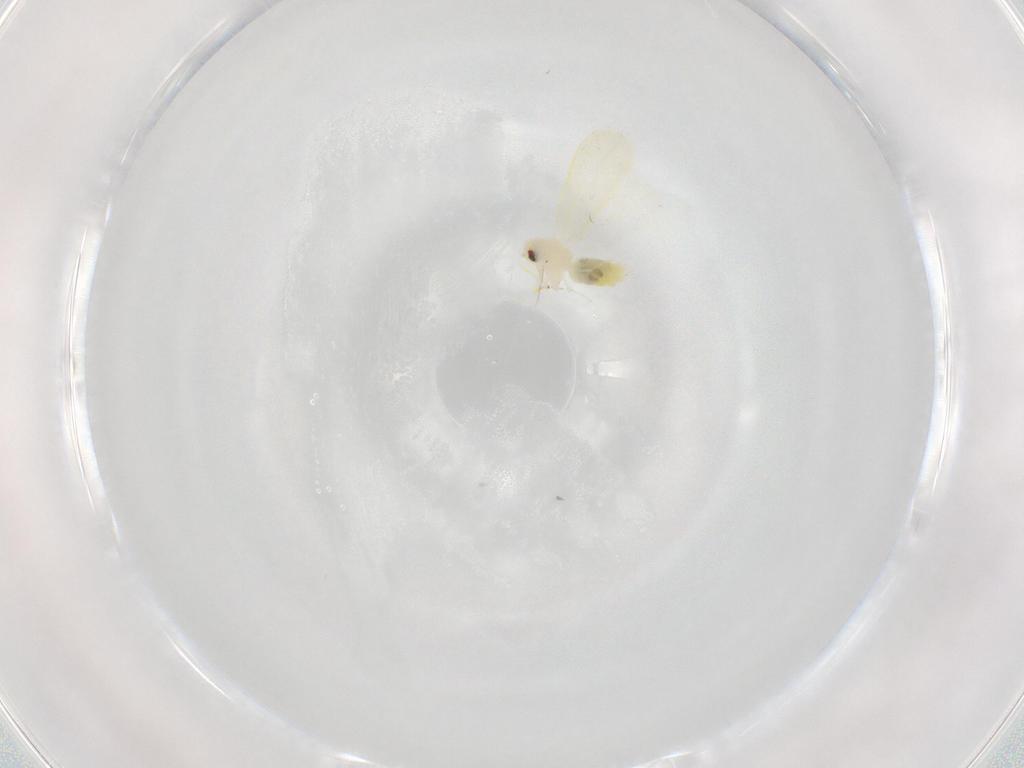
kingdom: Animalia
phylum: Arthropoda
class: Insecta
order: Hemiptera
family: Aleyrodidae
